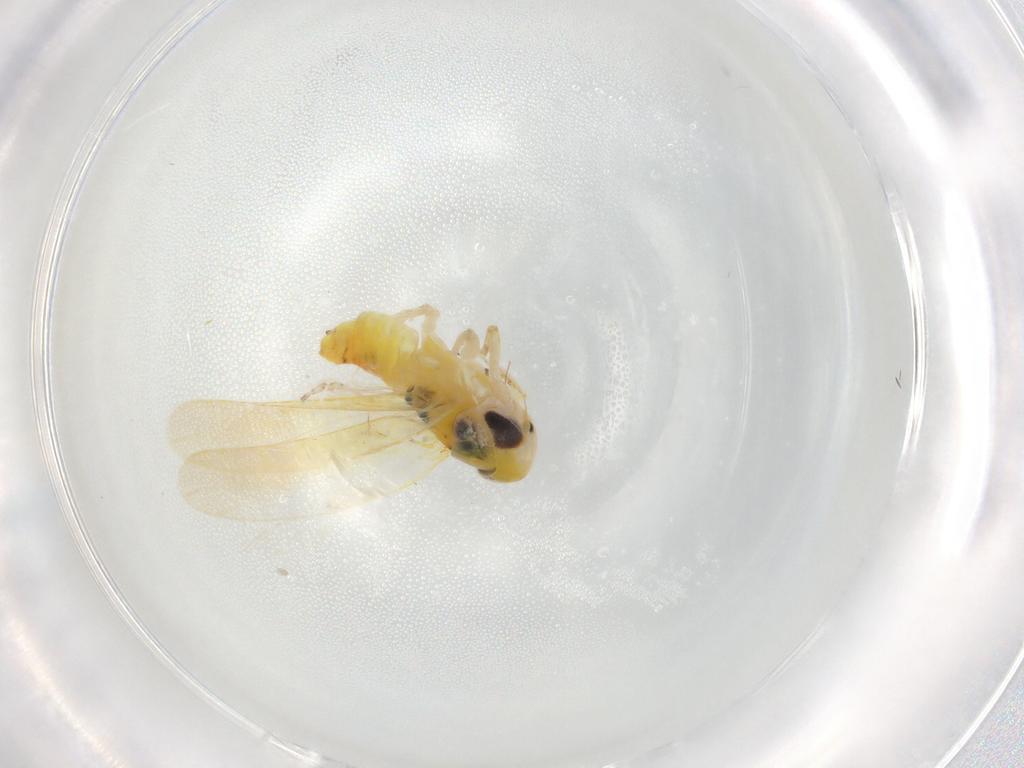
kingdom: Animalia
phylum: Arthropoda
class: Insecta
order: Hemiptera
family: Cicadellidae
